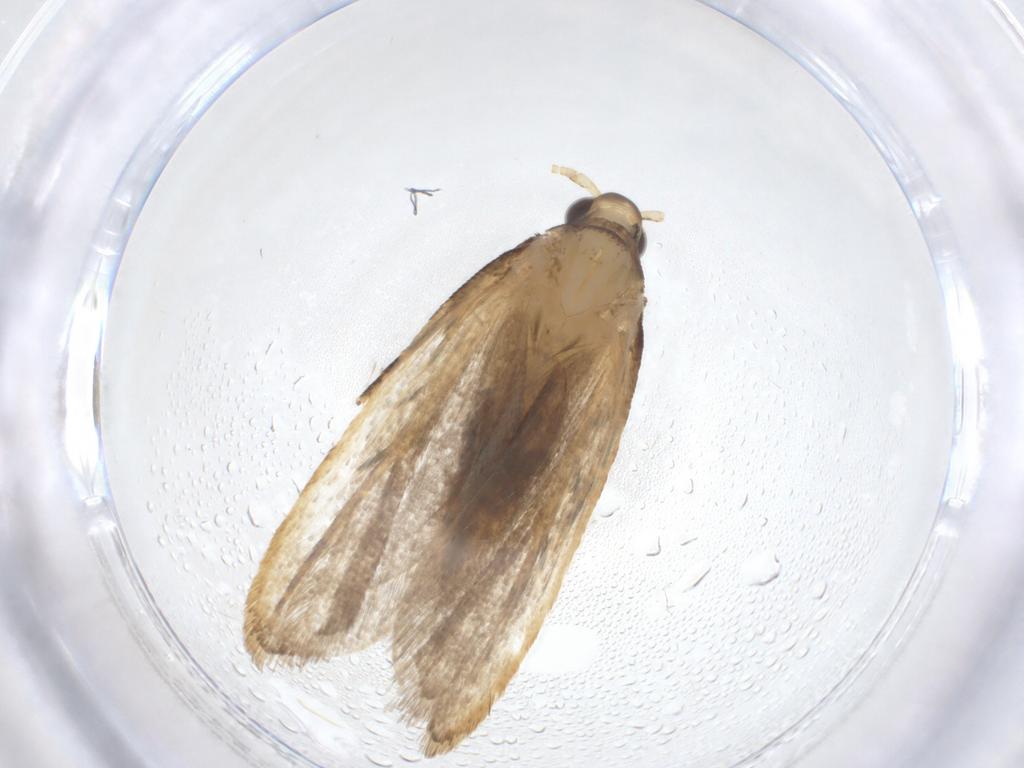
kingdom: Animalia
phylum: Arthropoda
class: Insecta
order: Lepidoptera
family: Lecithoceridae
